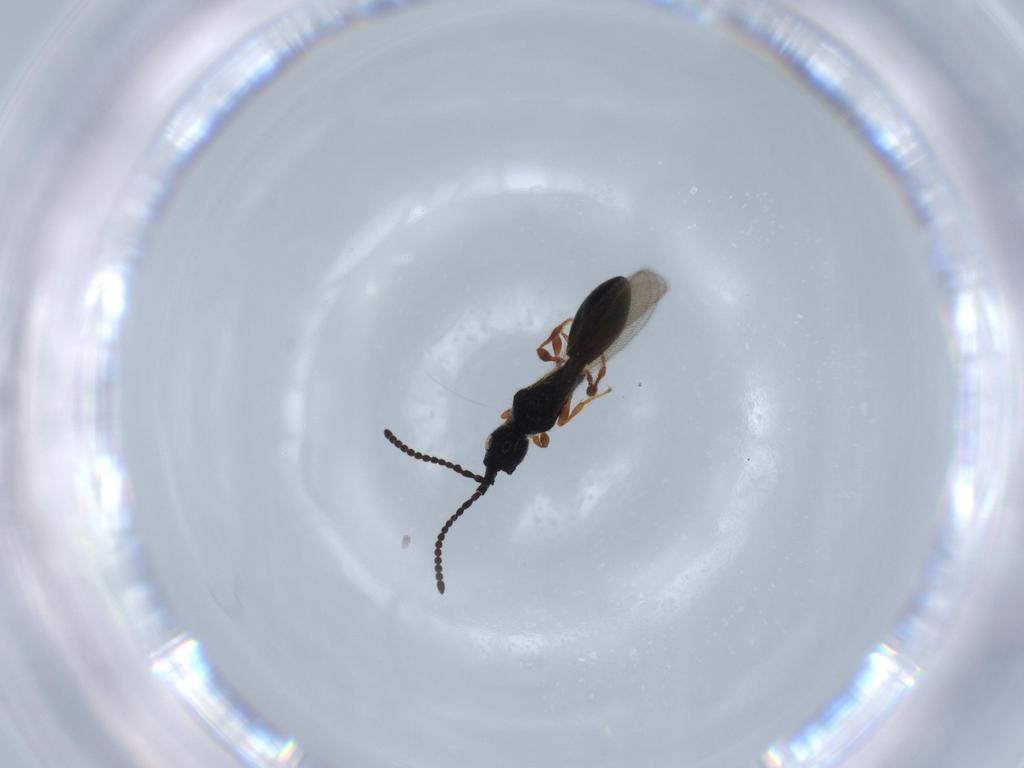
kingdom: Animalia
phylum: Arthropoda
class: Insecta
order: Hymenoptera
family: Diapriidae
